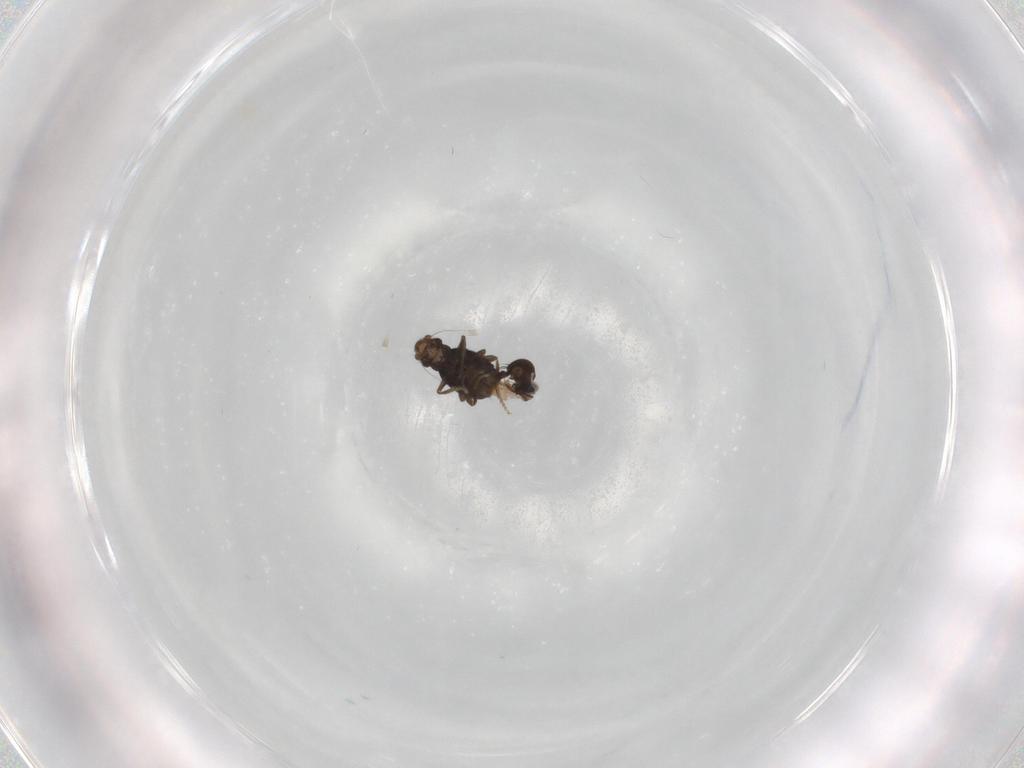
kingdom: Animalia
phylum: Arthropoda
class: Insecta
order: Diptera
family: Phoridae
